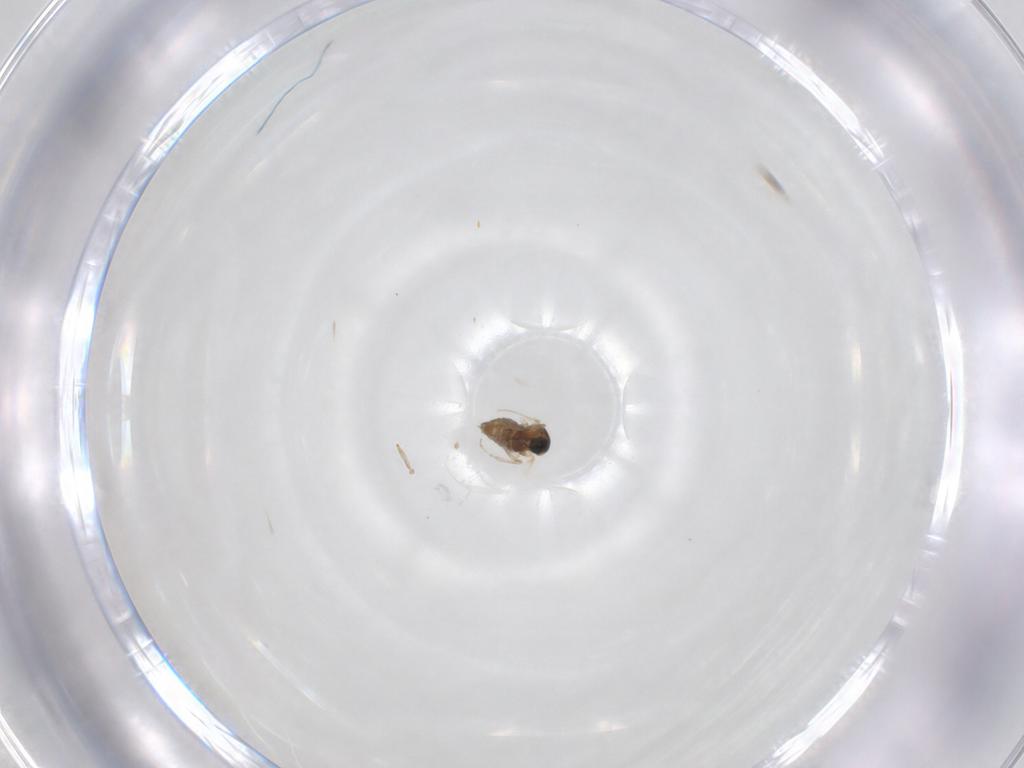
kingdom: Animalia
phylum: Arthropoda
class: Insecta
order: Diptera
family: Cecidomyiidae
